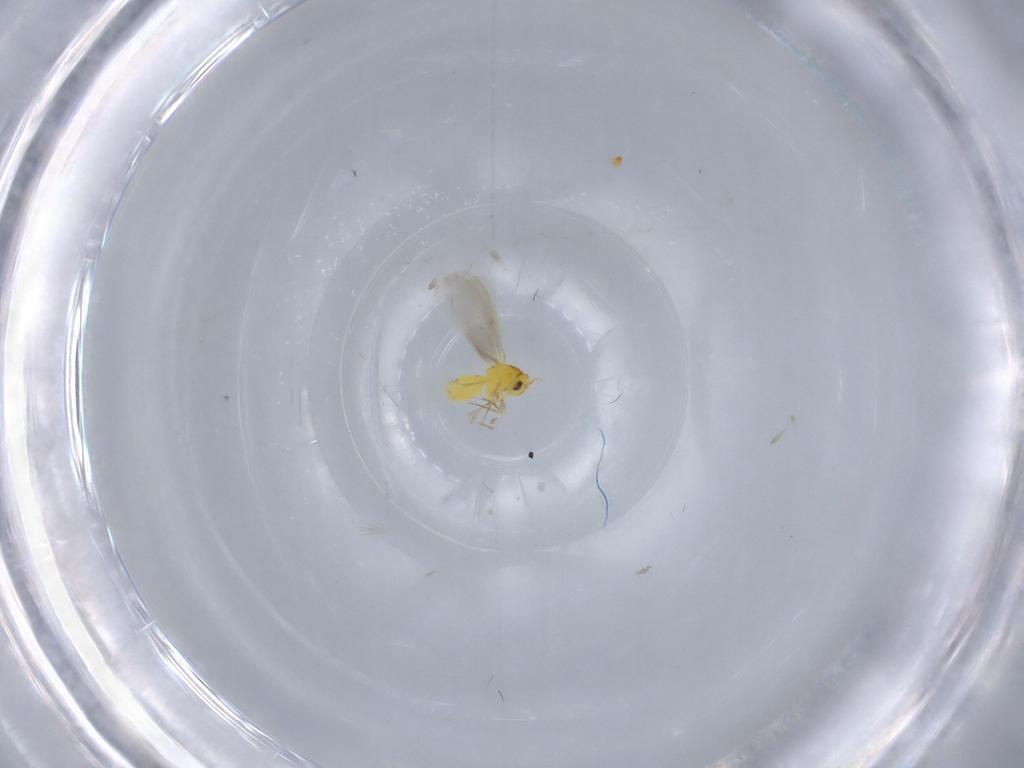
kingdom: Animalia
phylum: Arthropoda
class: Insecta
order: Hemiptera
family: Aleyrodidae
